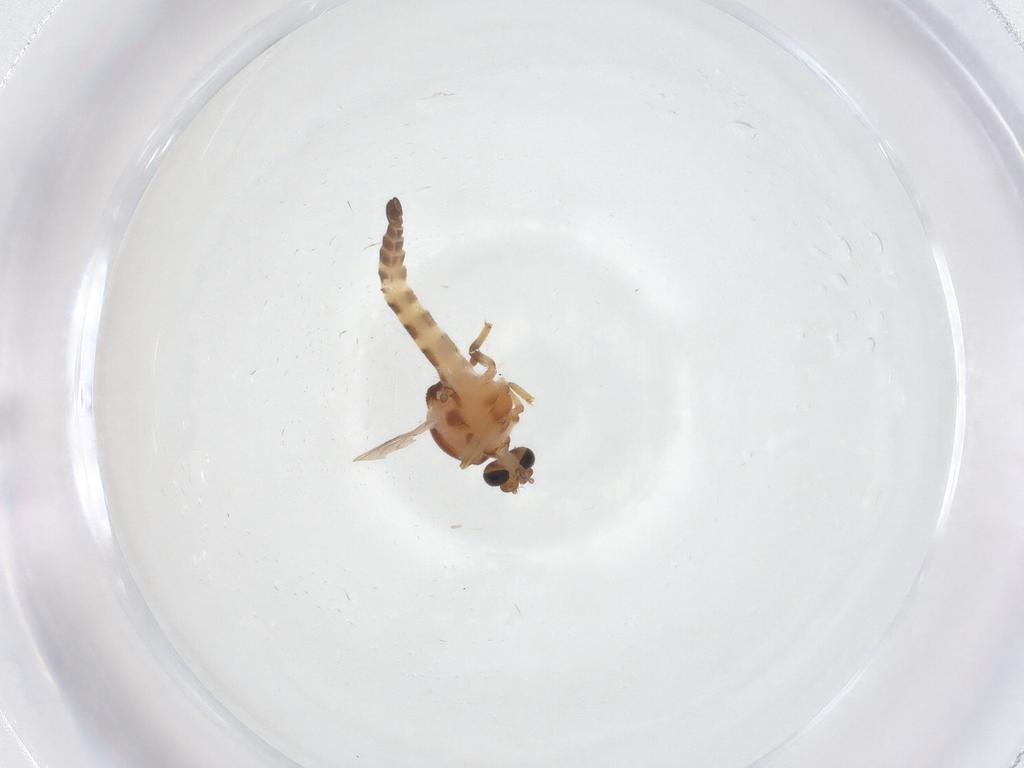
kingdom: Animalia
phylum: Arthropoda
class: Insecta
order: Diptera
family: Ceratopogonidae
